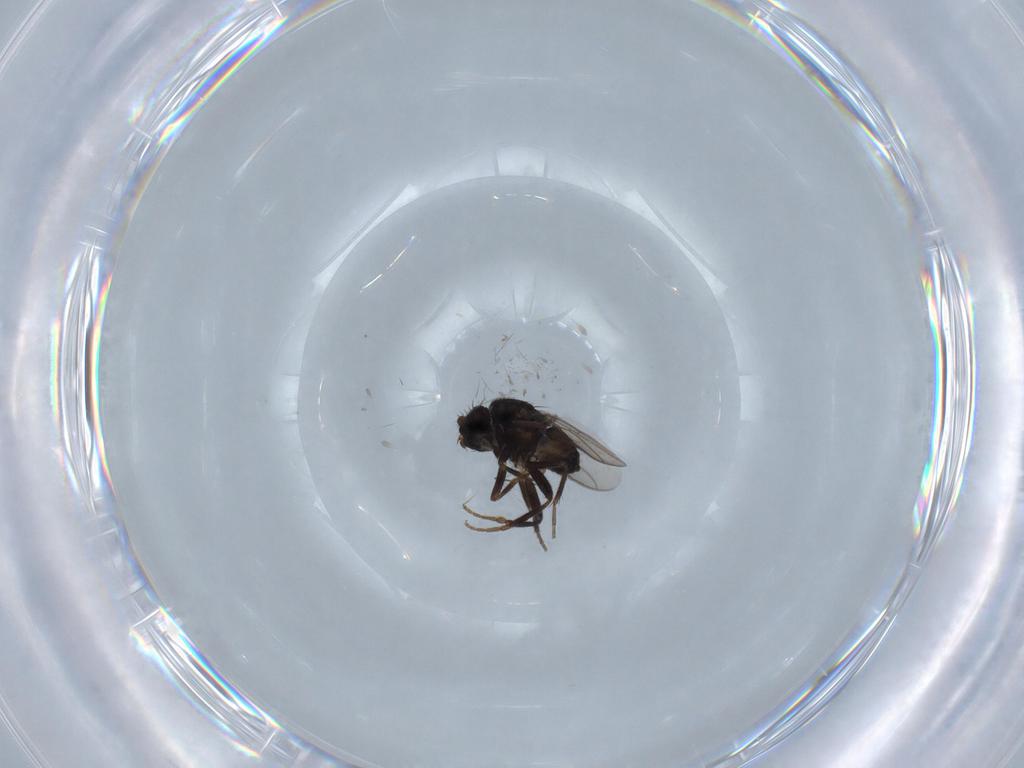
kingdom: Animalia
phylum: Arthropoda
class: Insecta
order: Diptera
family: Sphaeroceridae
